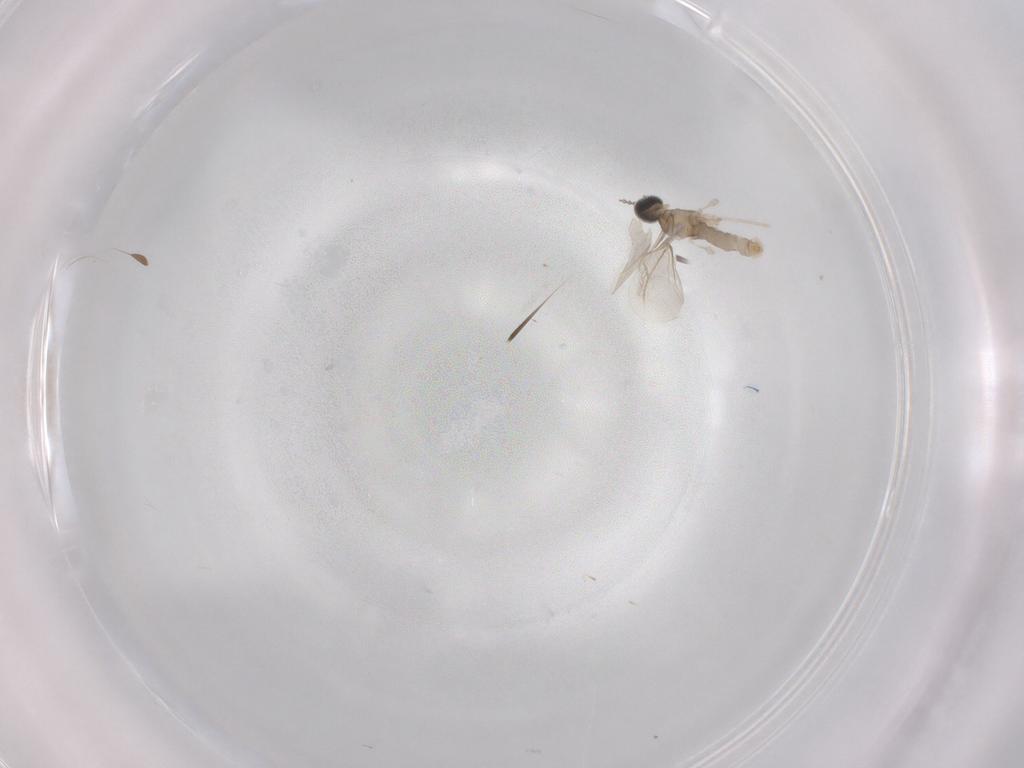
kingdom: Animalia
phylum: Arthropoda
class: Insecta
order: Diptera
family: Cecidomyiidae
